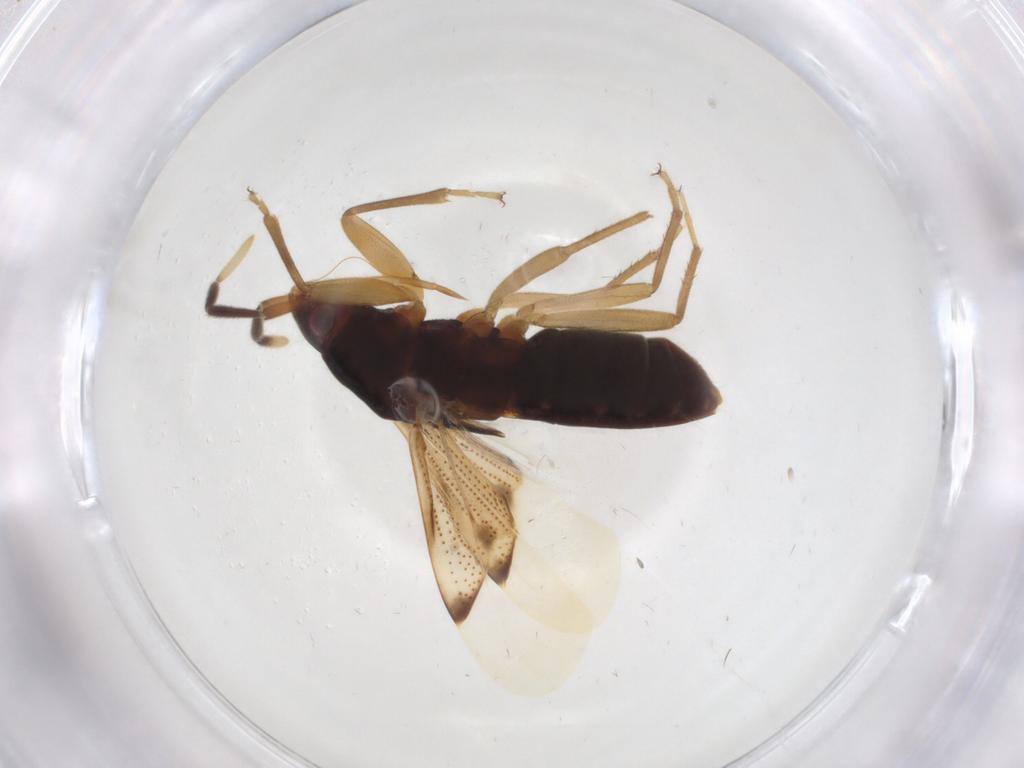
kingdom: Animalia
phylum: Arthropoda
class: Insecta
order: Hemiptera
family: Rhyparochromidae
